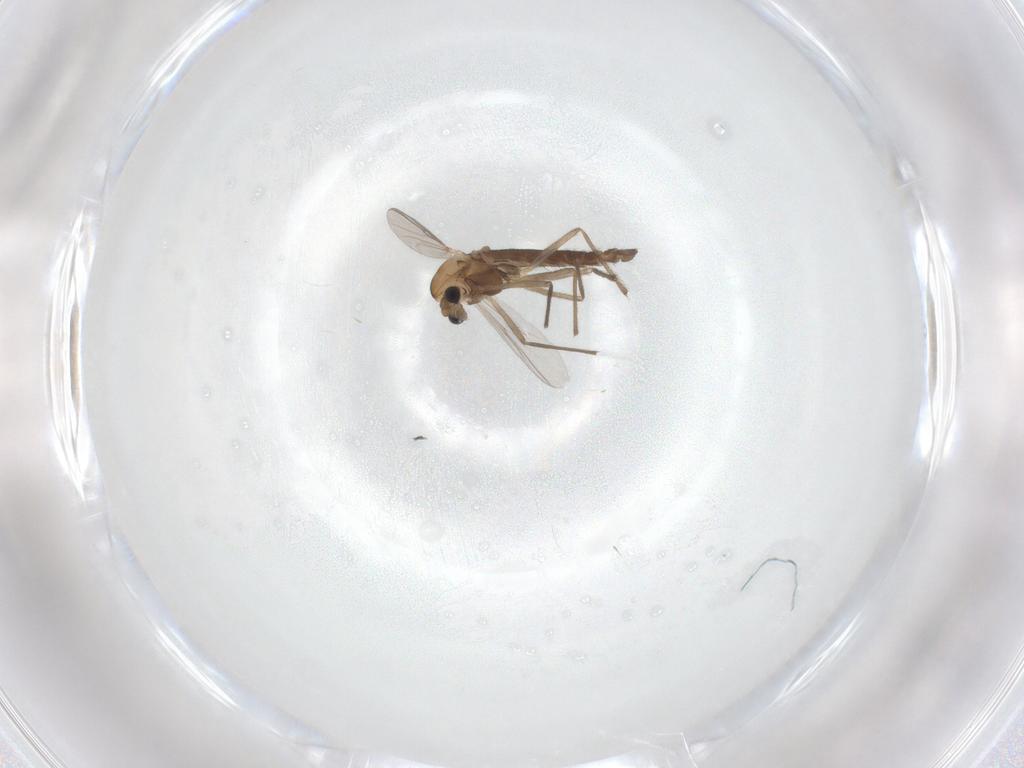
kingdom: Animalia
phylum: Arthropoda
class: Insecta
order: Diptera
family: Chironomidae
